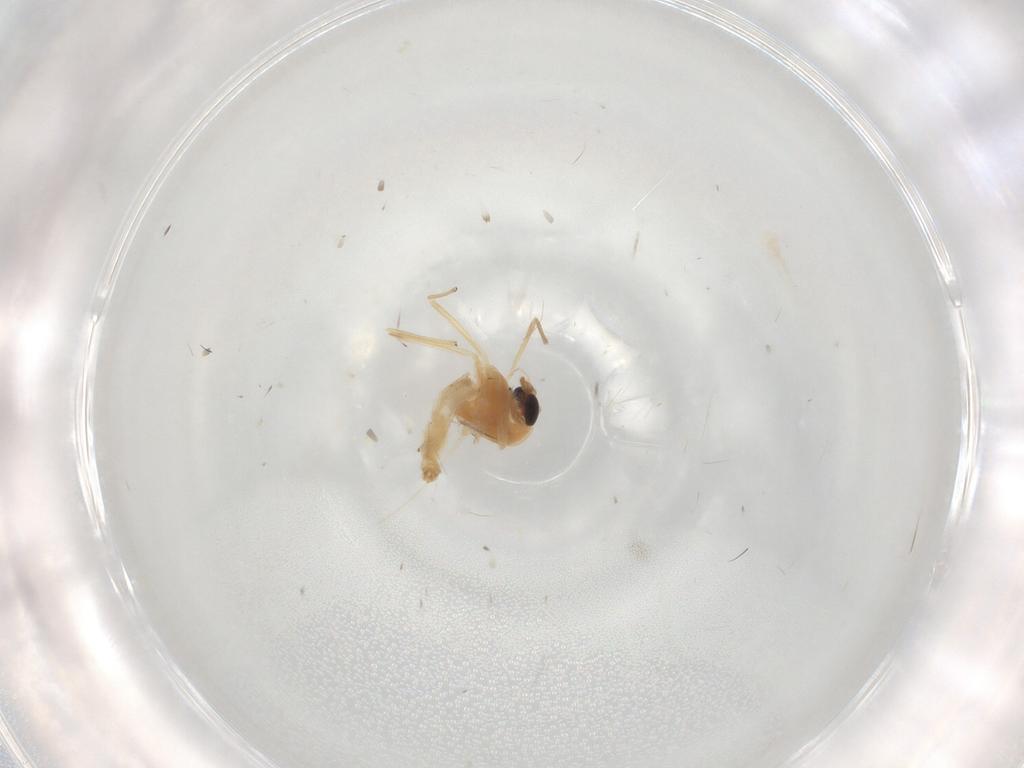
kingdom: Animalia
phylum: Arthropoda
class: Insecta
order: Diptera
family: Chironomidae
